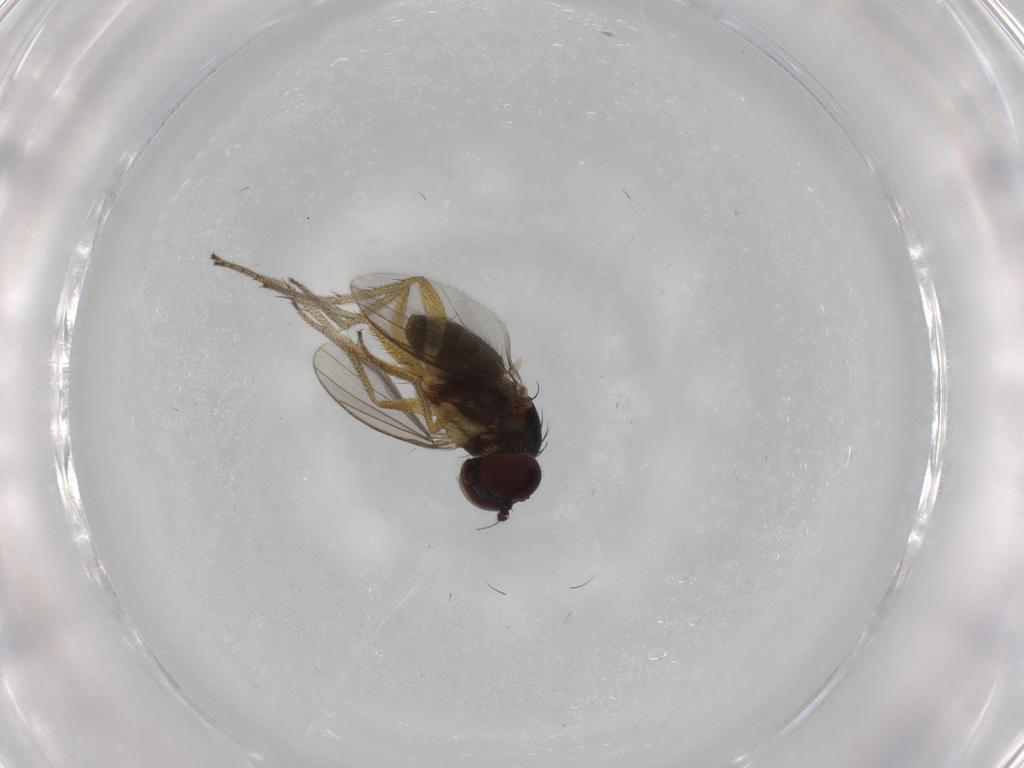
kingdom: Animalia
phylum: Arthropoda
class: Insecta
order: Diptera
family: Dolichopodidae
